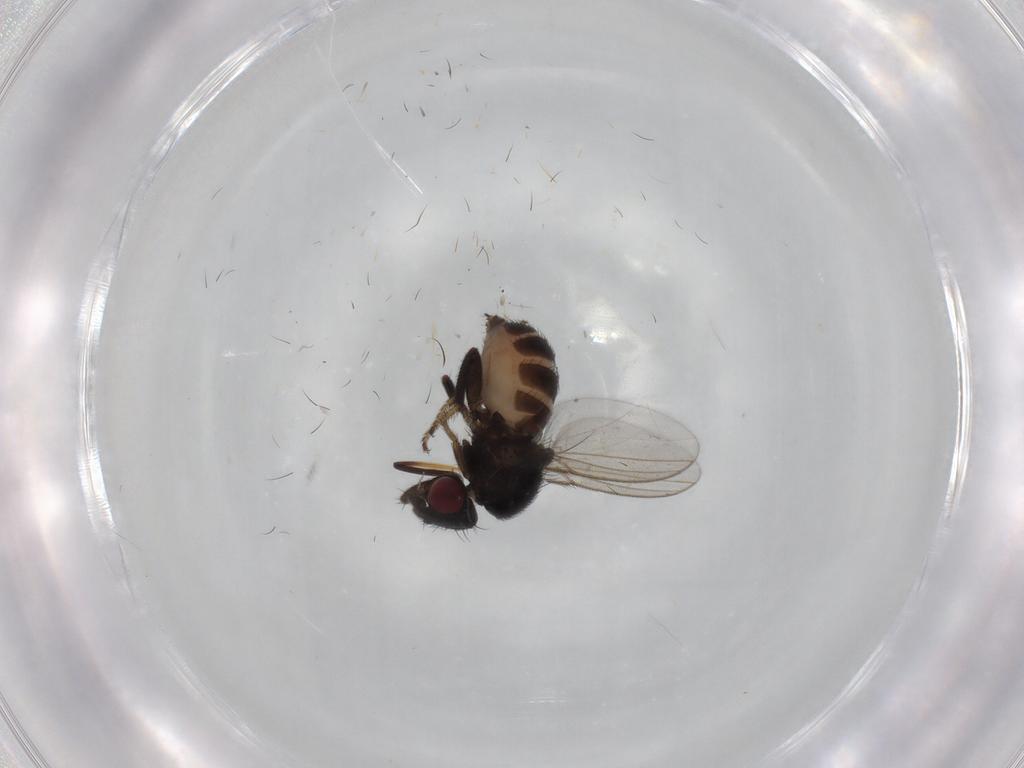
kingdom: Animalia
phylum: Arthropoda
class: Insecta
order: Diptera
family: Milichiidae
